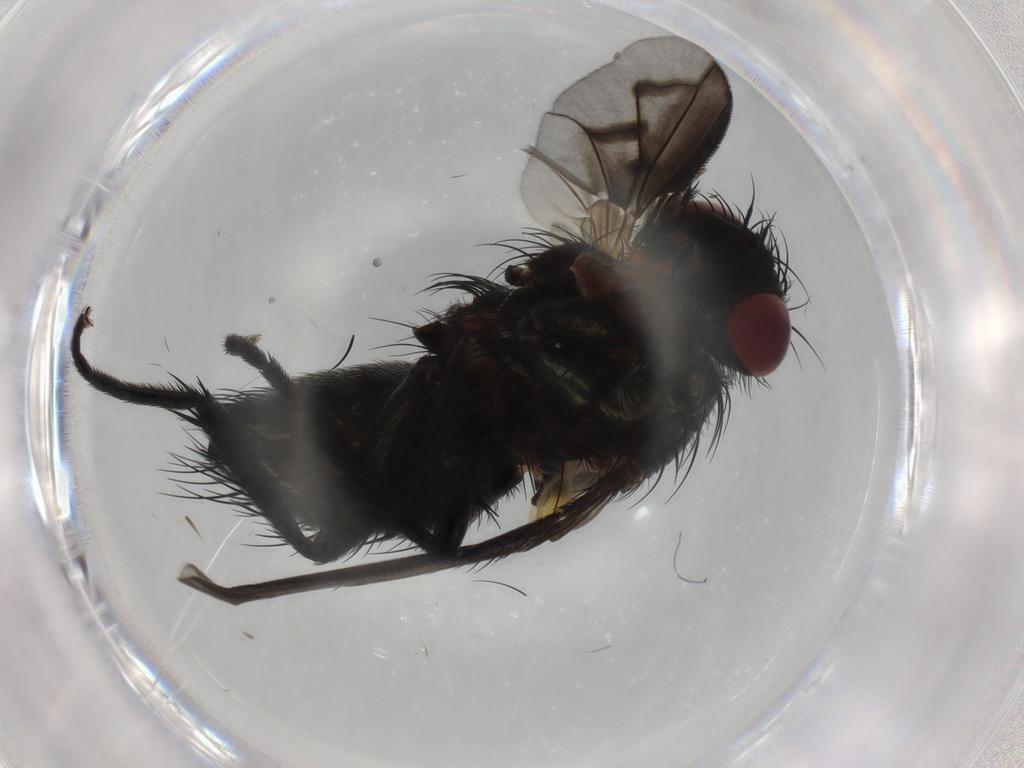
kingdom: Animalia
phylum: Arthropoda
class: Insecta
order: Diptera
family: Tachinidae
